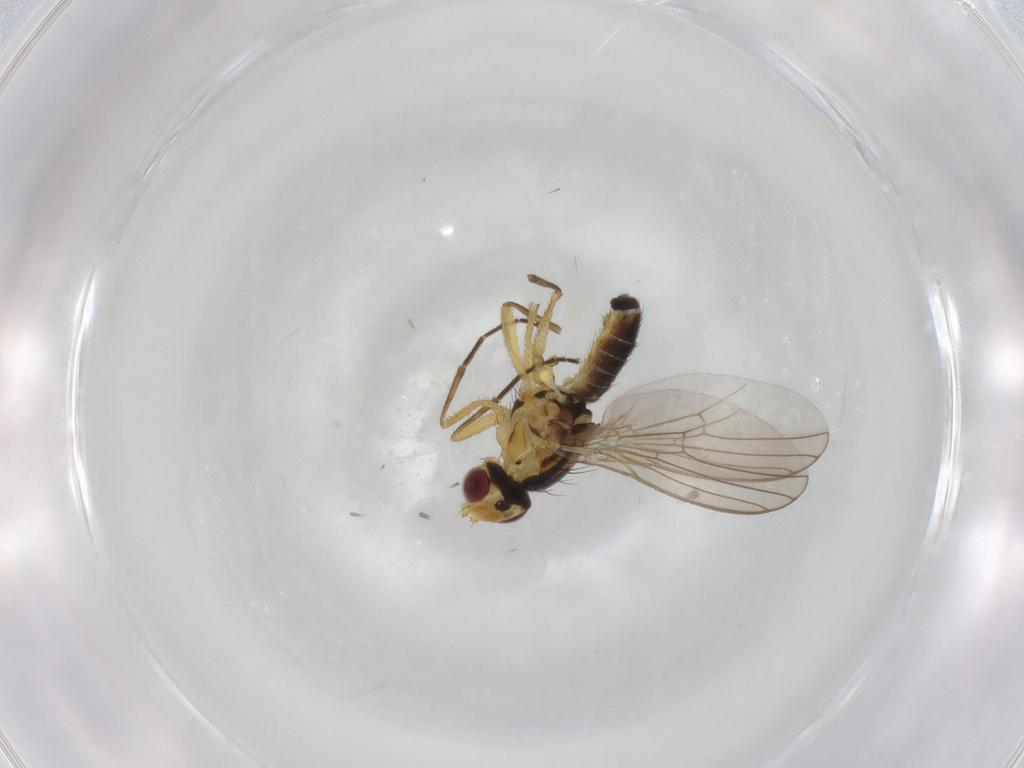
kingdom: Animalia
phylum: Arthropoda
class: Insecta
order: Diptera
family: Agromyzidae
